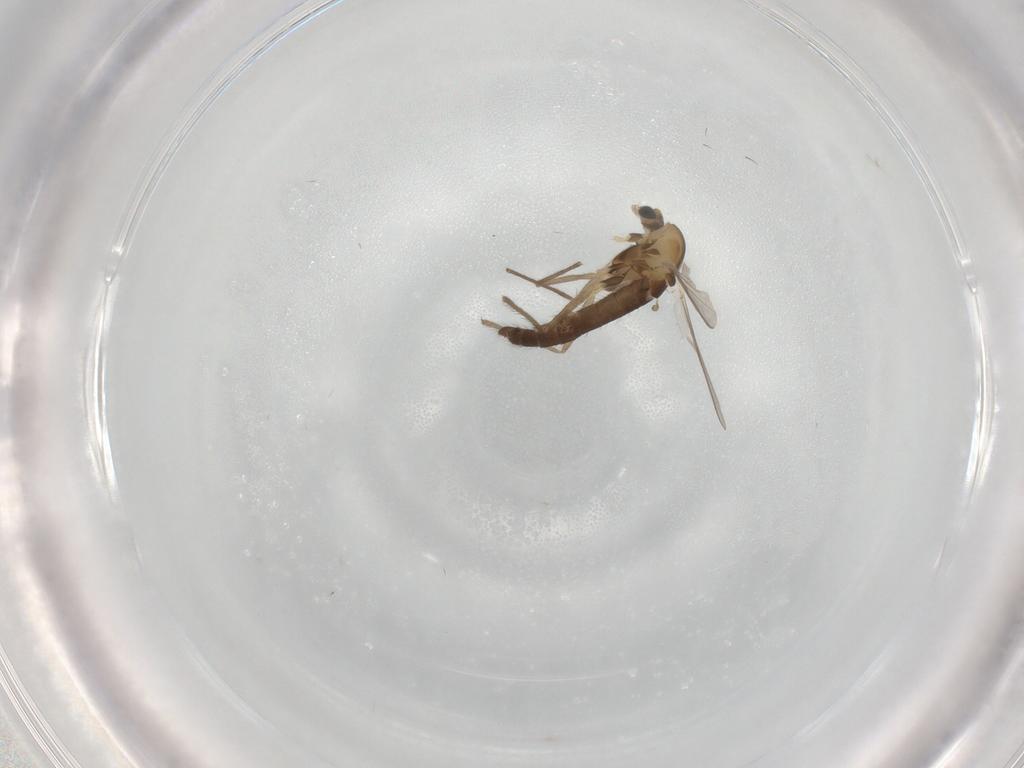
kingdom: Animalia
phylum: Arthropoda
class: Insecta
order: Diptera
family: Chironomidae
